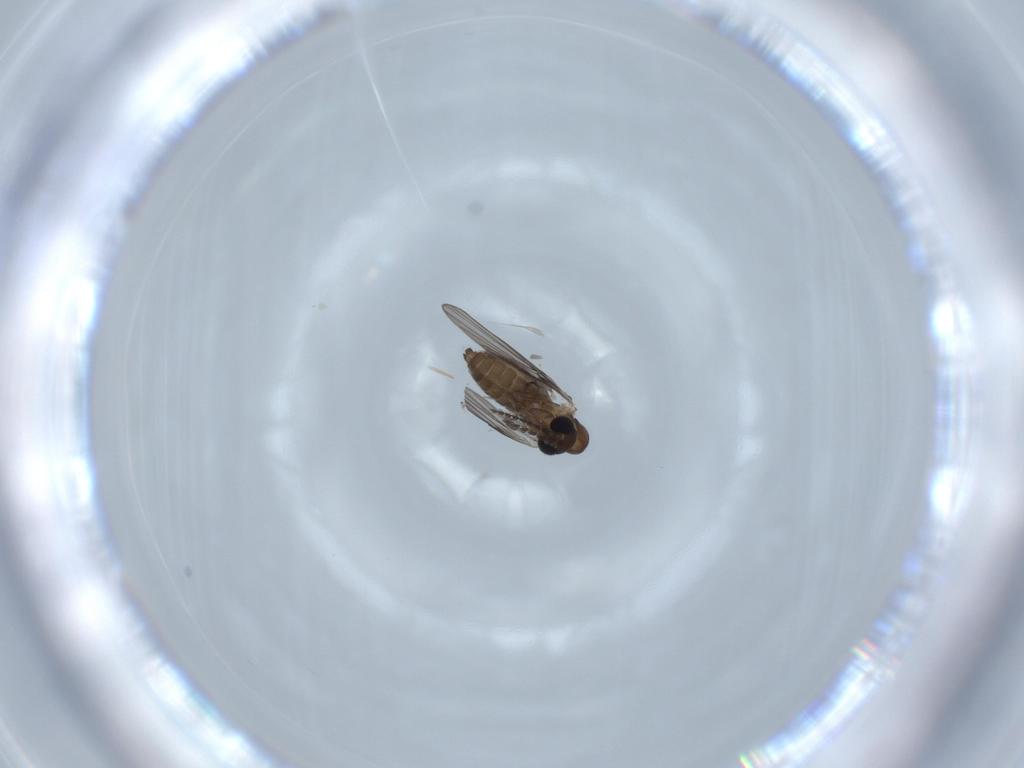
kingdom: Animalia
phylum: Arthropoda
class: Insecta
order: Diptera
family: Psychodidae
